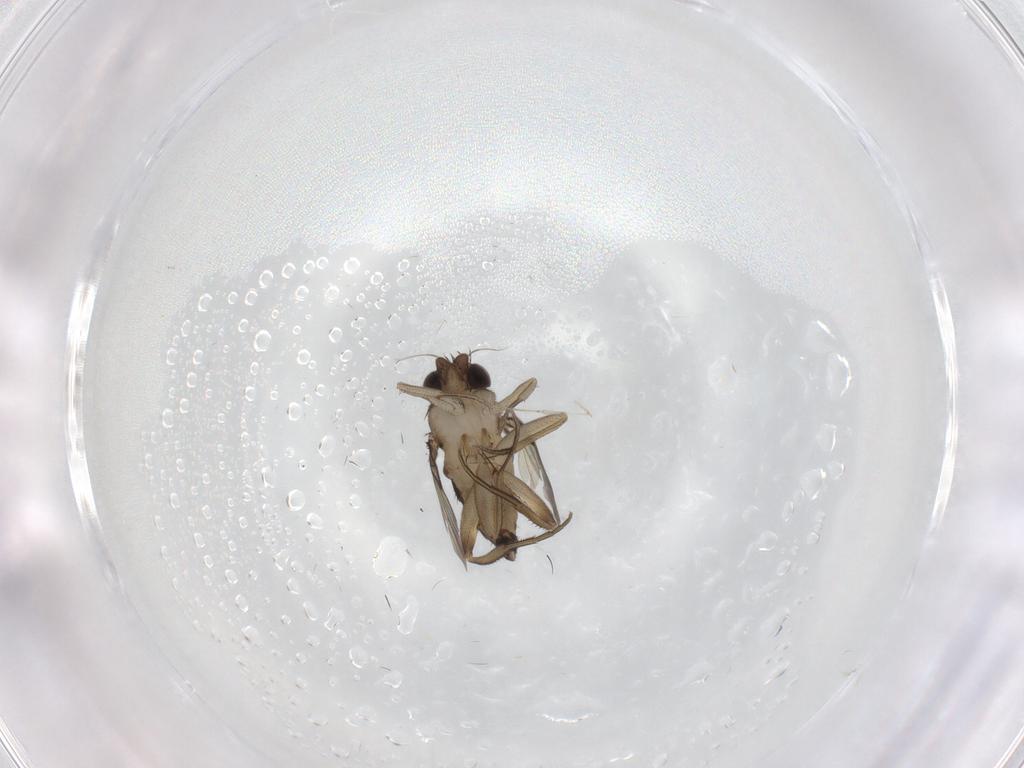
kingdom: Animalia
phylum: Arthropoda
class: Insecta
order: Diptera
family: Phoridae
